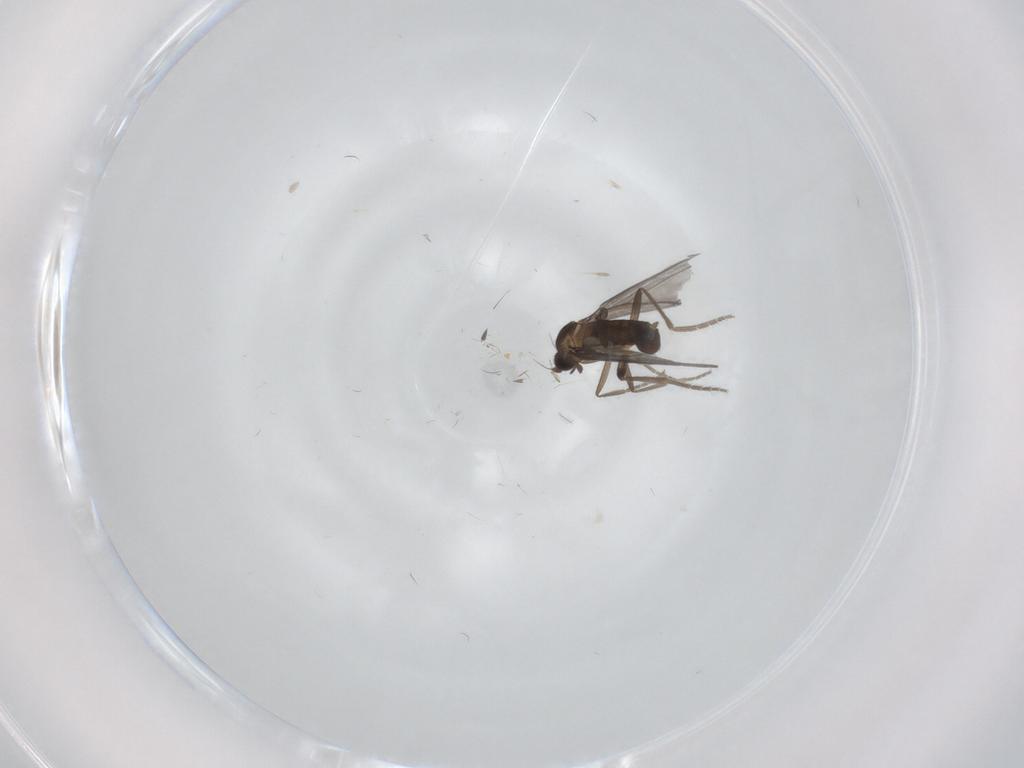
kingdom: Animalia
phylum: Arthropoda
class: Insecta
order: Diptera
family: Ceratopogonidae
